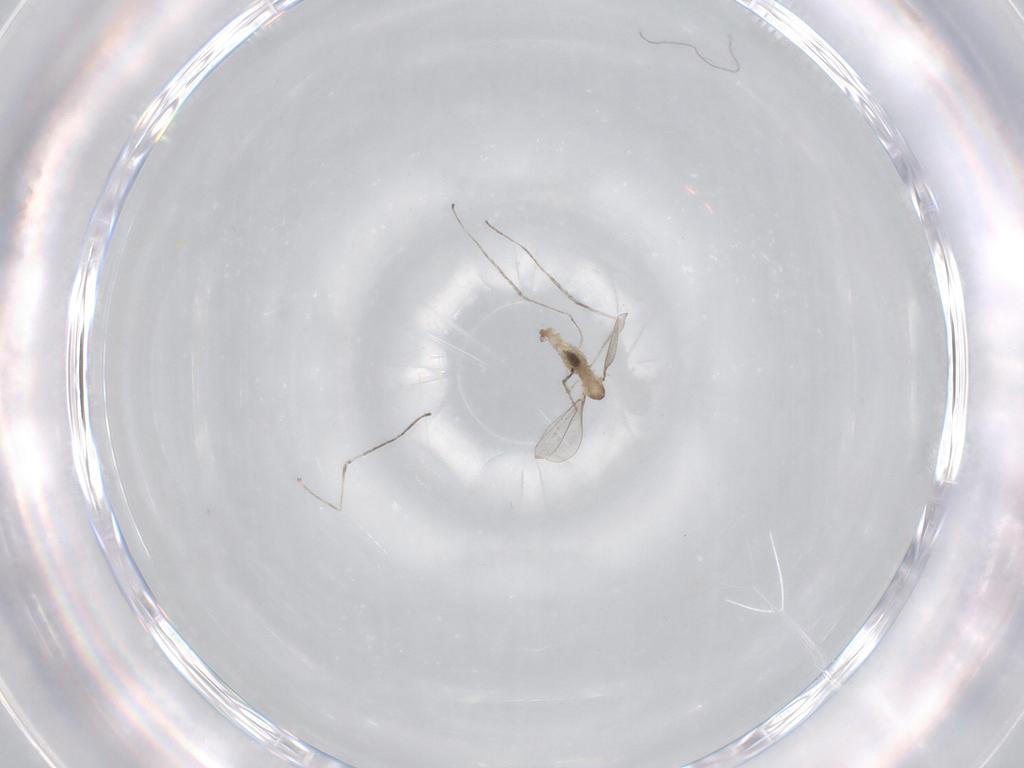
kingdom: Animalia
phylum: Arthropoda
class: Insecta
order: Diptera
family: Cecidomyiidae
